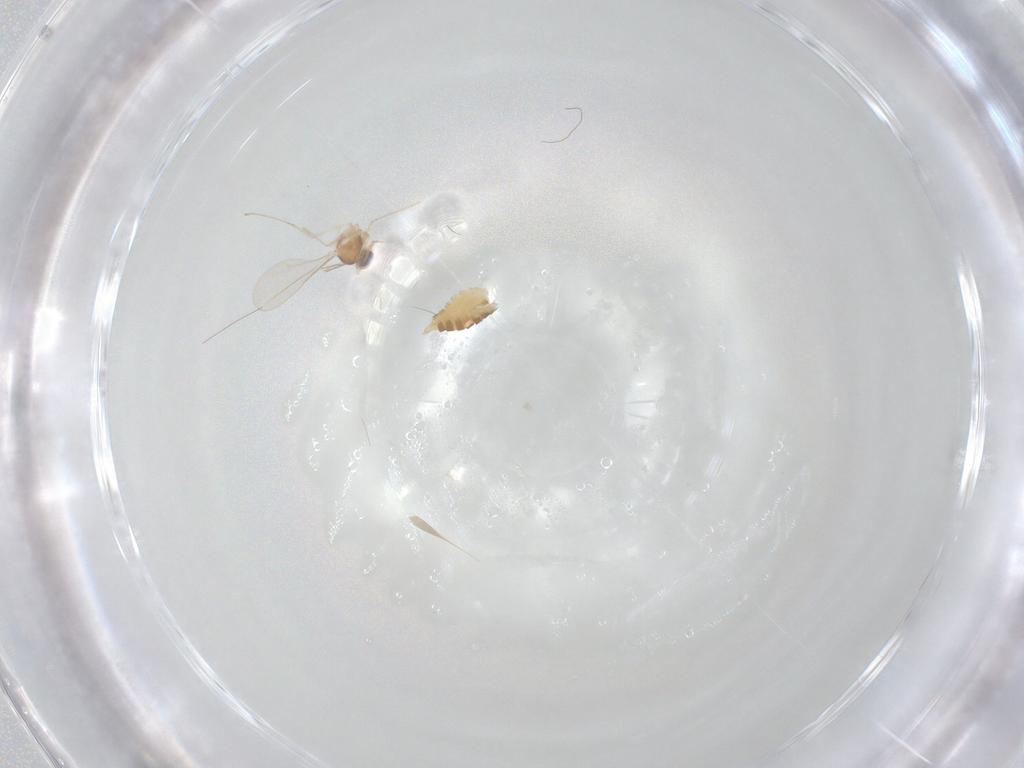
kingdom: Animalia
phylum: Arthropoda
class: Insecta
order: Diptera
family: Cecidomyiidae
